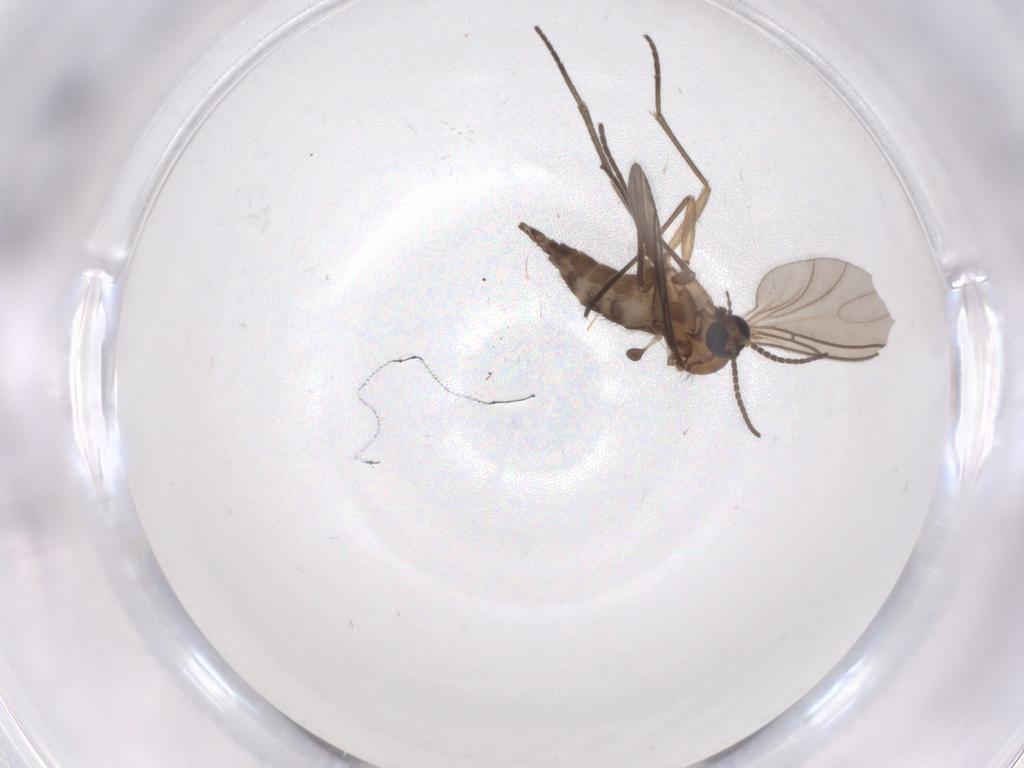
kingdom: Animalia
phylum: Arthropoda
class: Insecta
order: Diptera
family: Sciaridae
